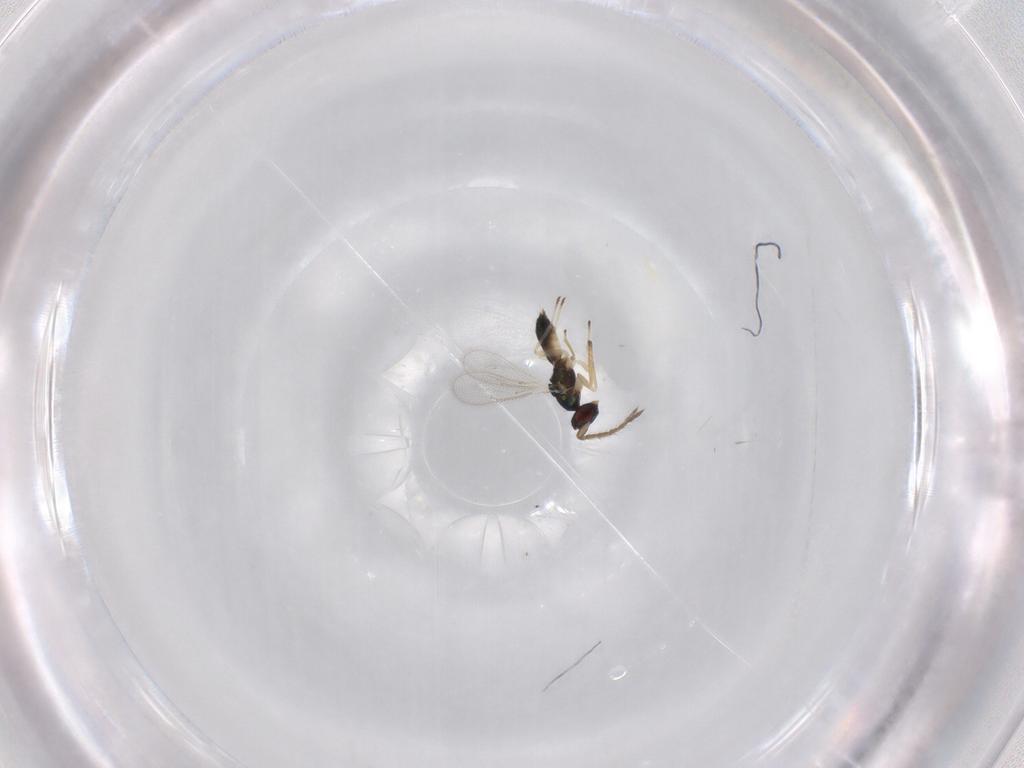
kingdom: Animalia
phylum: Arthropoda
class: Insecta
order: Hymenoptera
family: Eulophidae
